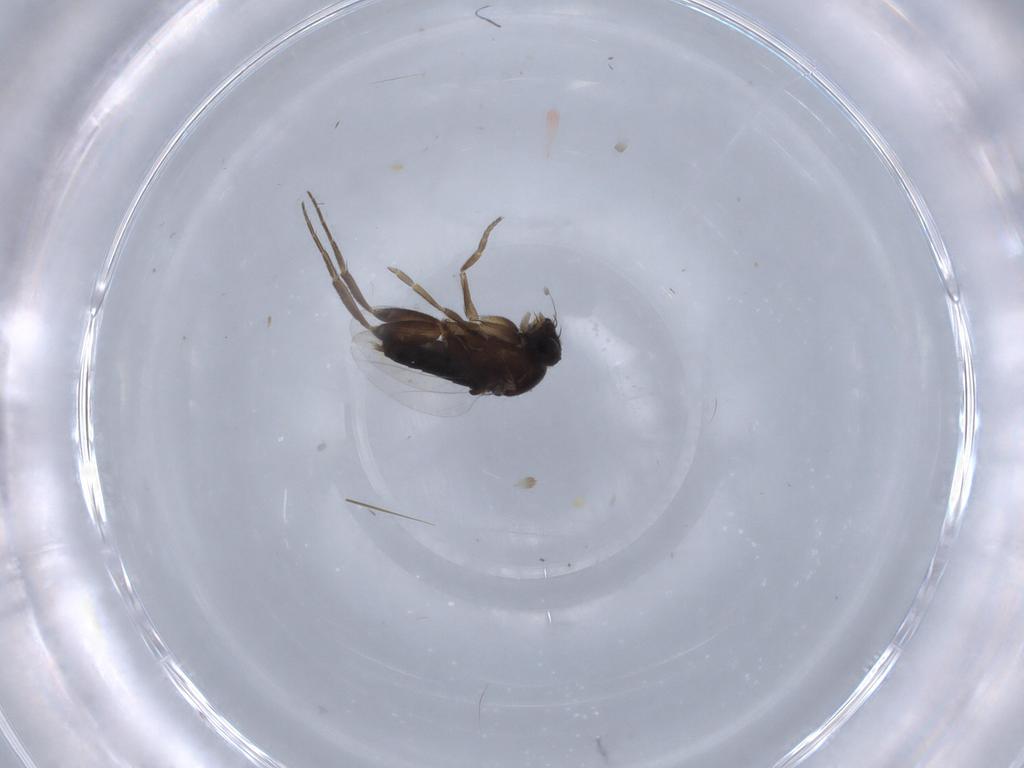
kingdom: Animalia
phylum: Arthropoda
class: Insecta
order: Diptera
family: Phoridae
